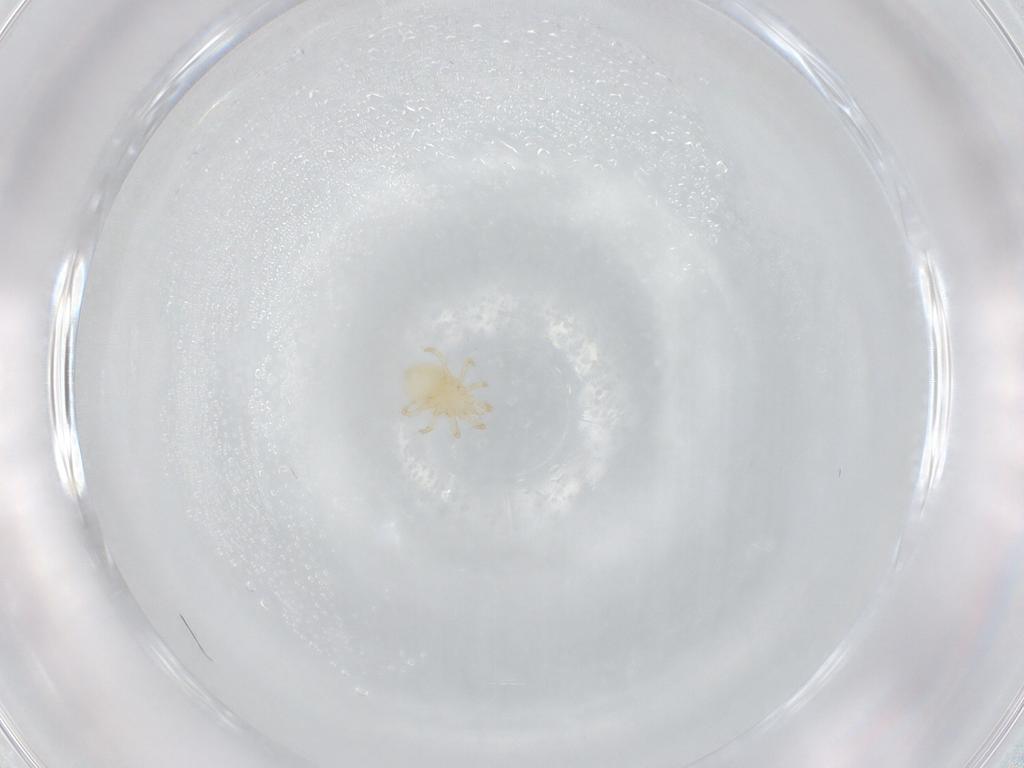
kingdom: Animalia
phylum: Arthropoda
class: Arachnida
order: Mesostigmata
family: Melicharidae
